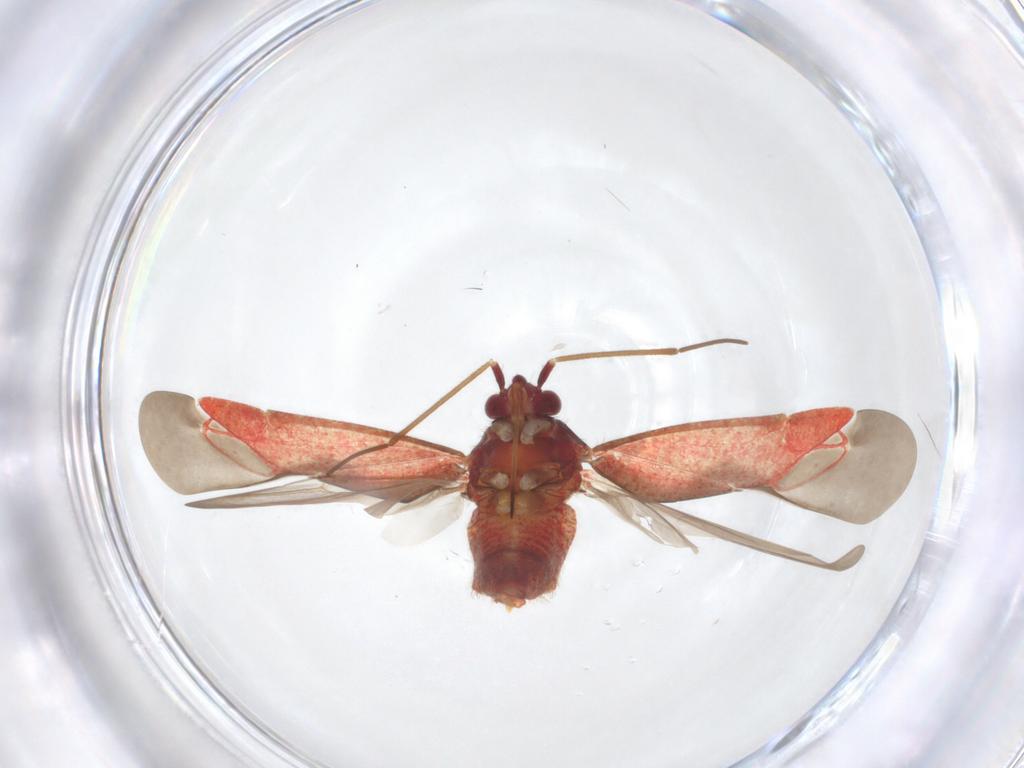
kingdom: Animalia
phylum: Arthropoda
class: Insecta
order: Hemiptera
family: Miridae
